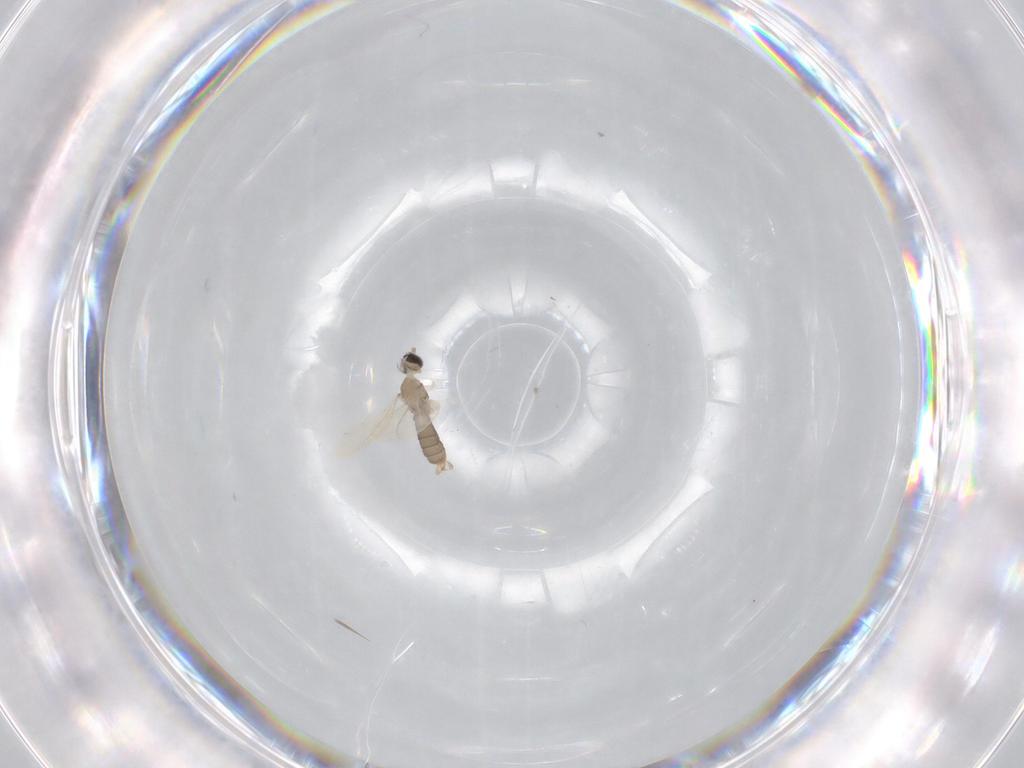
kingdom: Animalia
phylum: Arthropoda
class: Insecta
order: Diptera
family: Cecidomyiidae
